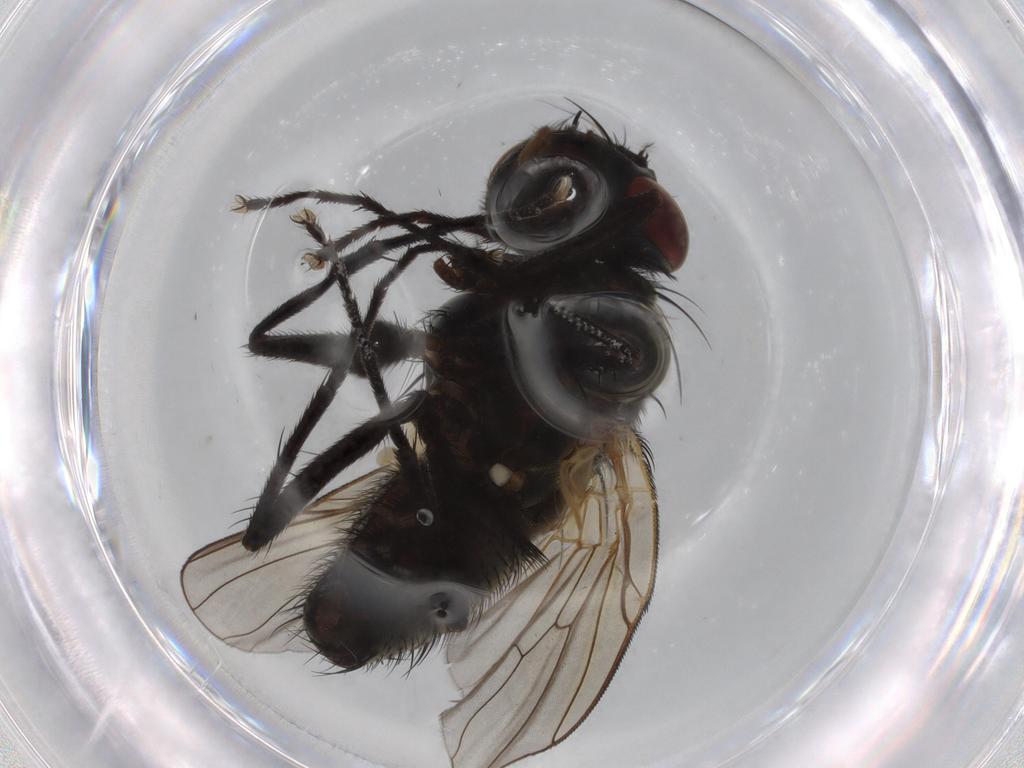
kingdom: Animalia
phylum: Arthropoda
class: Insecta
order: Diptera
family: Muscidae
